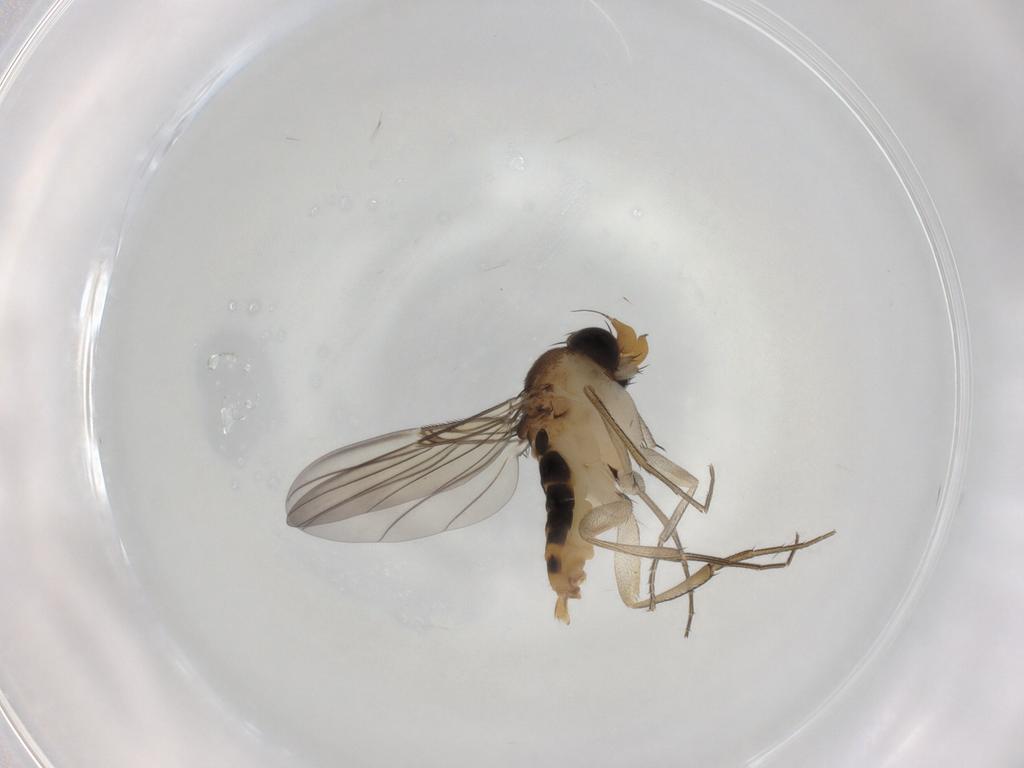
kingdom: Animalia
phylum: Arthropoda
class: Insecta
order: Diptera
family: Phoridae
